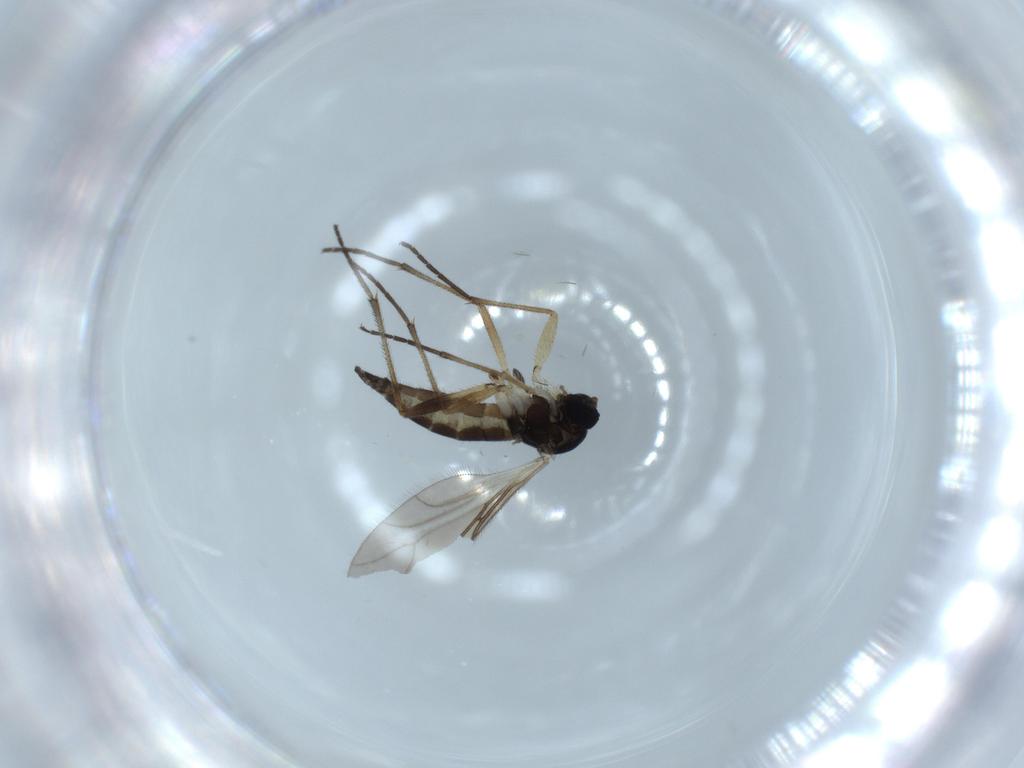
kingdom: Animalia
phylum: Arthropoda
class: Insecta
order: Diptera
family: Sciaridae
